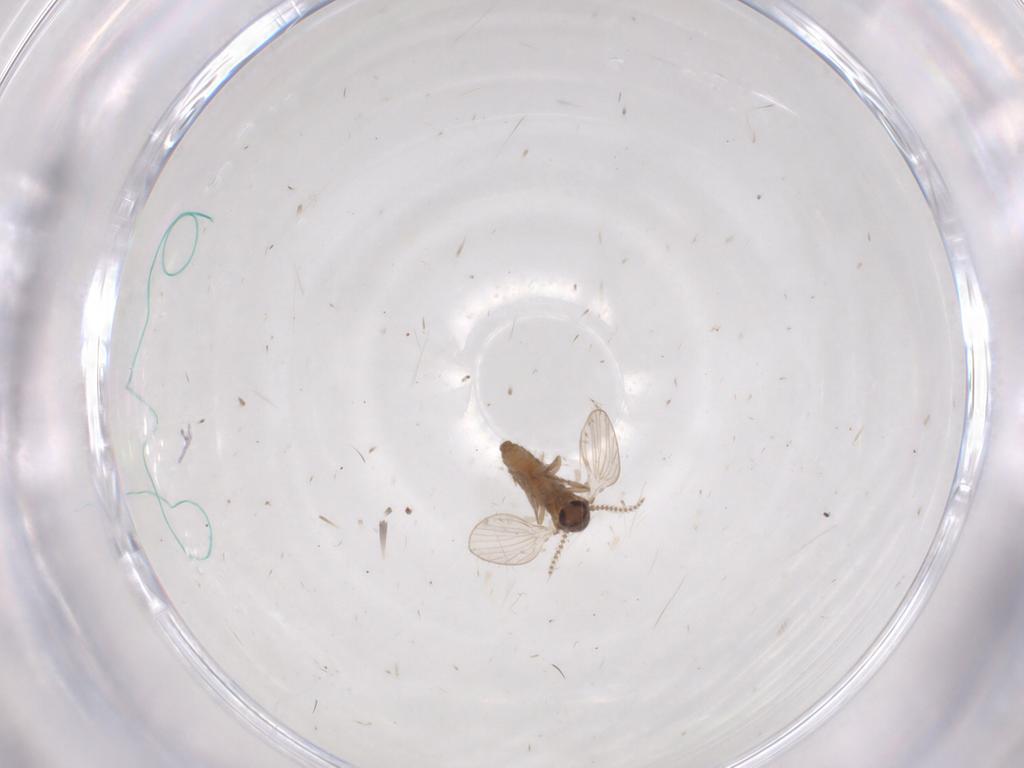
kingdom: Animalia
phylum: Arthropoda
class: Insecta
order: Diptera
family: Psychodidae
